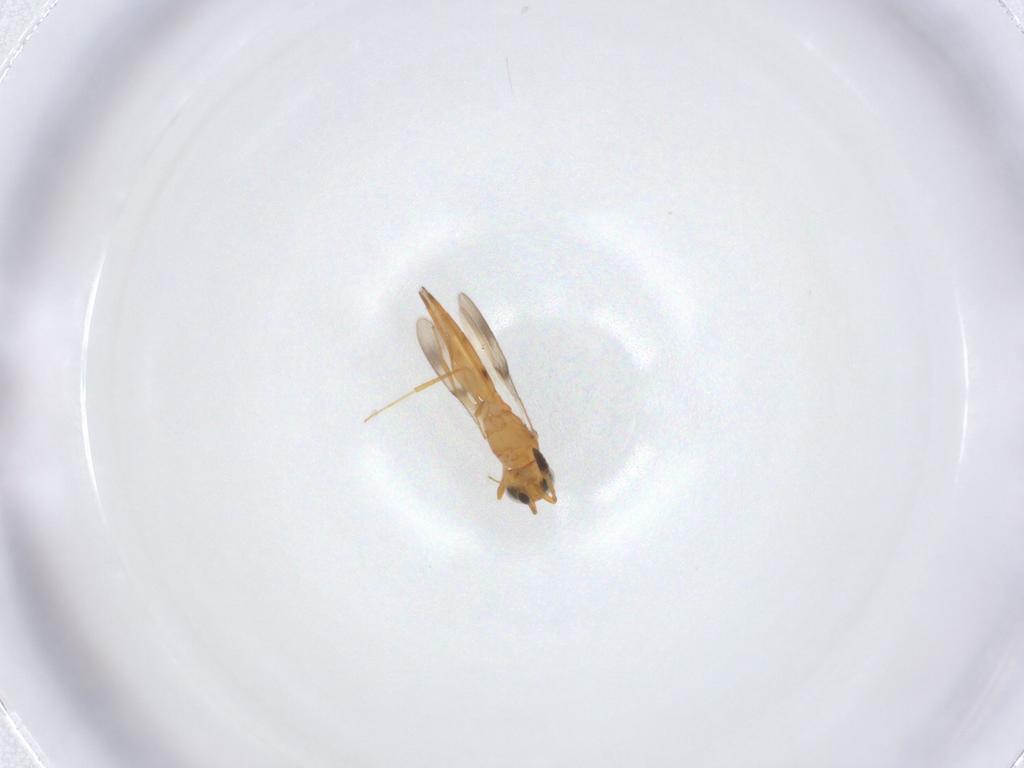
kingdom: Animalia
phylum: Arthropoda
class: Insecta
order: Hymenoptera
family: Scelionidae
